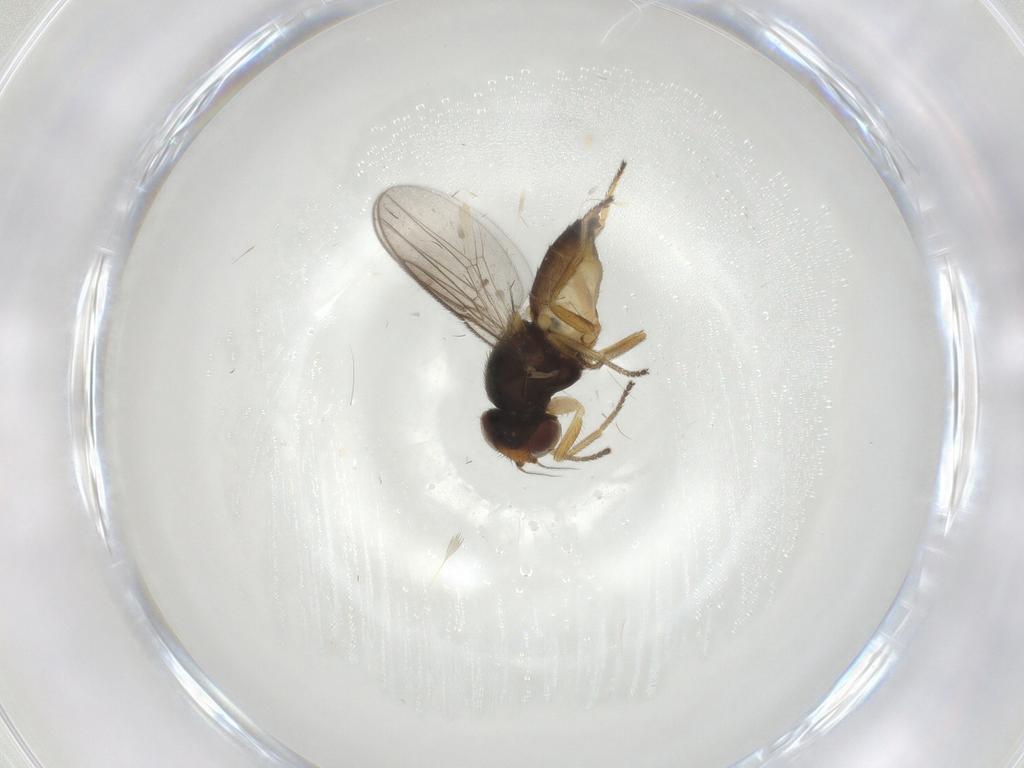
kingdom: Animalia
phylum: Arthropoda
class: Insecta
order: Diptera
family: Chloropidae
